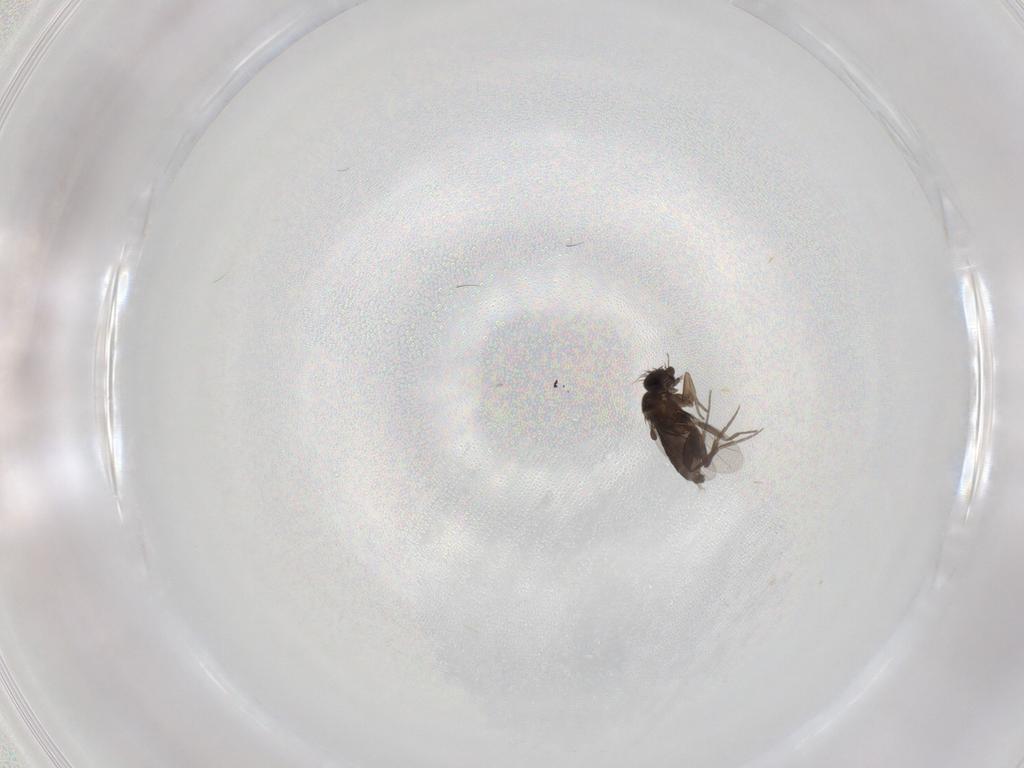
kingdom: Animalia
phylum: Arthropoda
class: Insecta
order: Diptera
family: Phoridae
